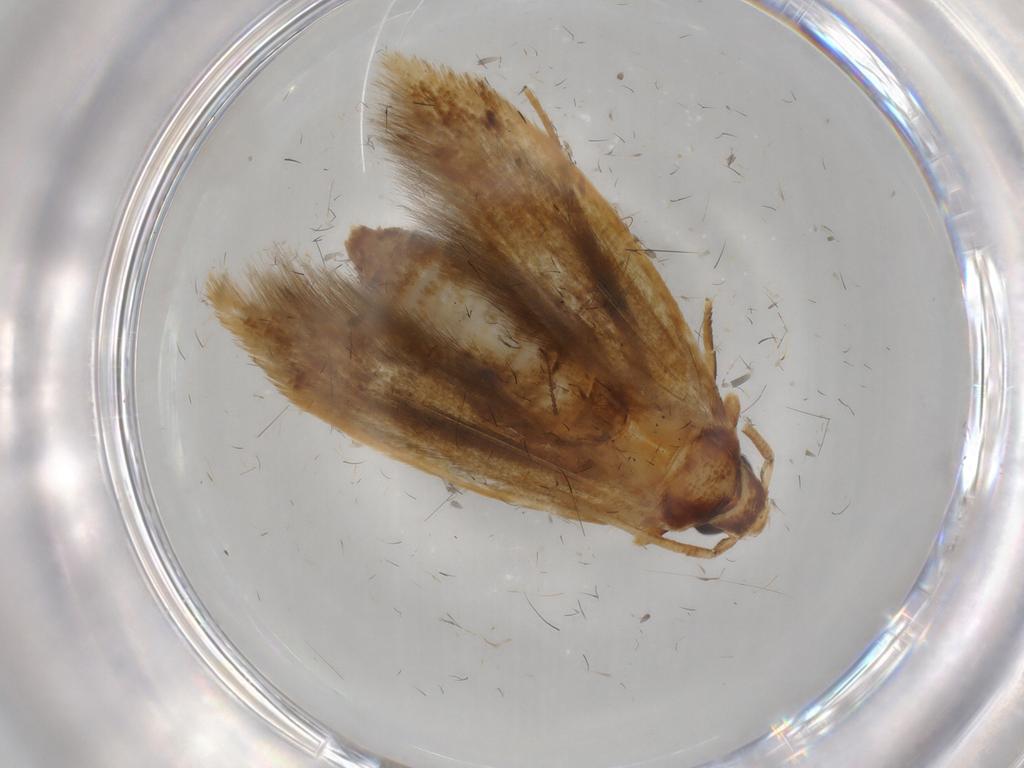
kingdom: Animalia
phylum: Arthropoda
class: Insecta
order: Lepidoptera
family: Tineidae
